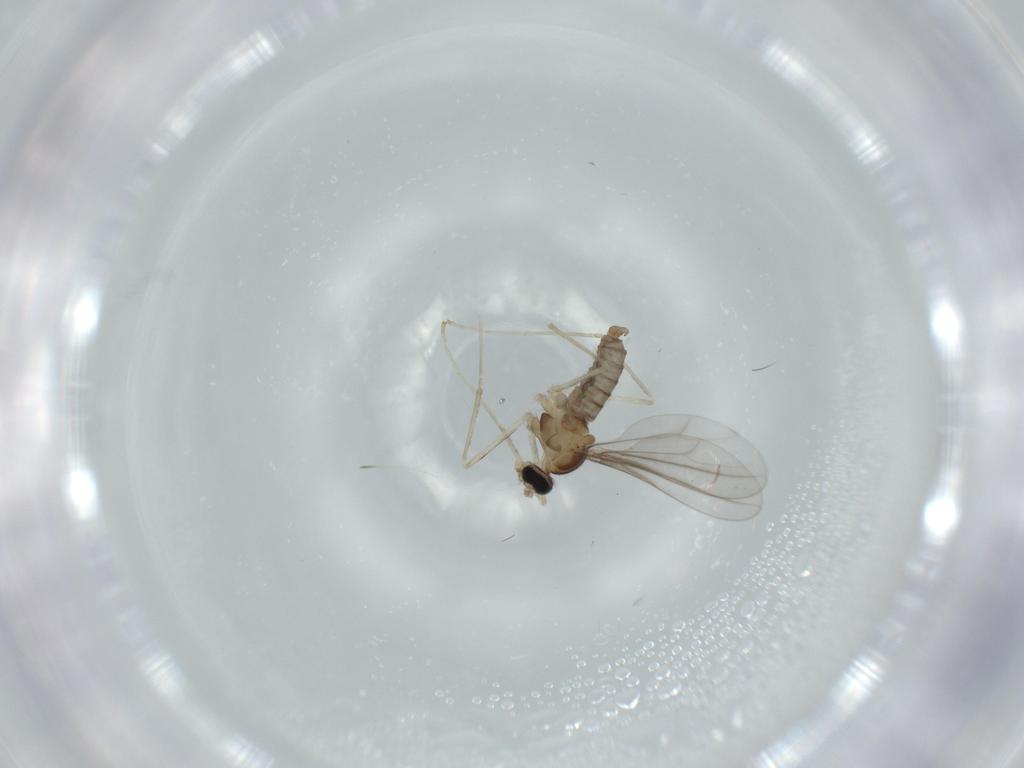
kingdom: Animalia
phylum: Arthropoda
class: Insecta
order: Diptera
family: Cecidomyiidae
